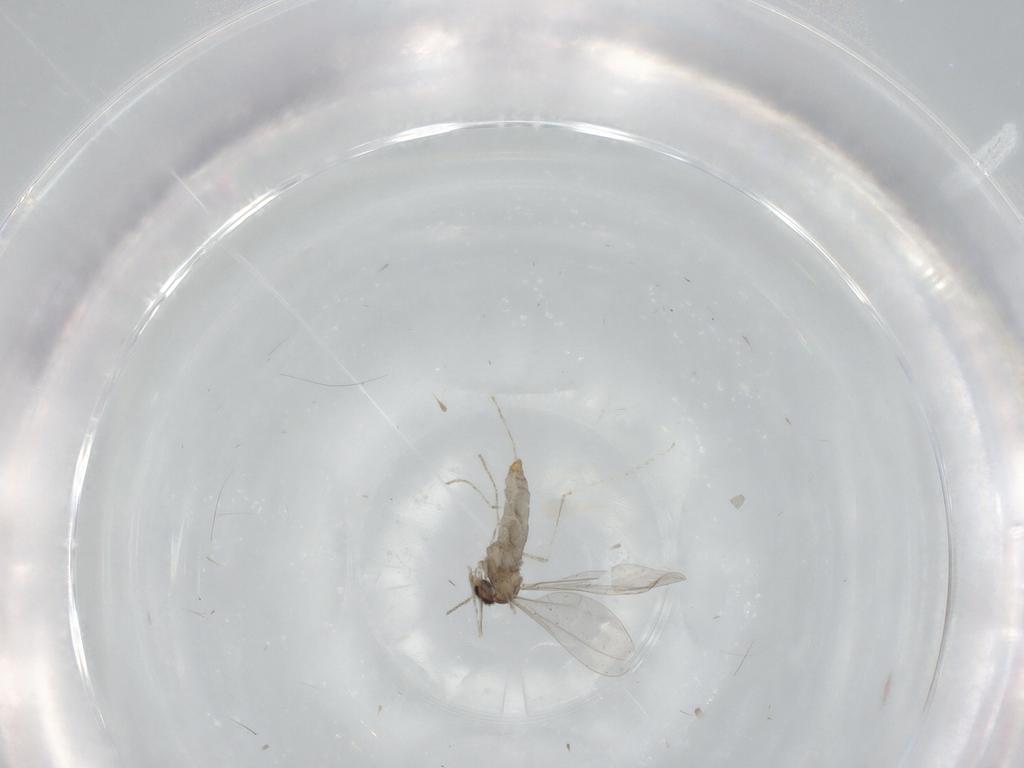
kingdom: Animalia
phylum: Arthropoda
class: Insecta
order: Diptera
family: Cecidomyiidae
